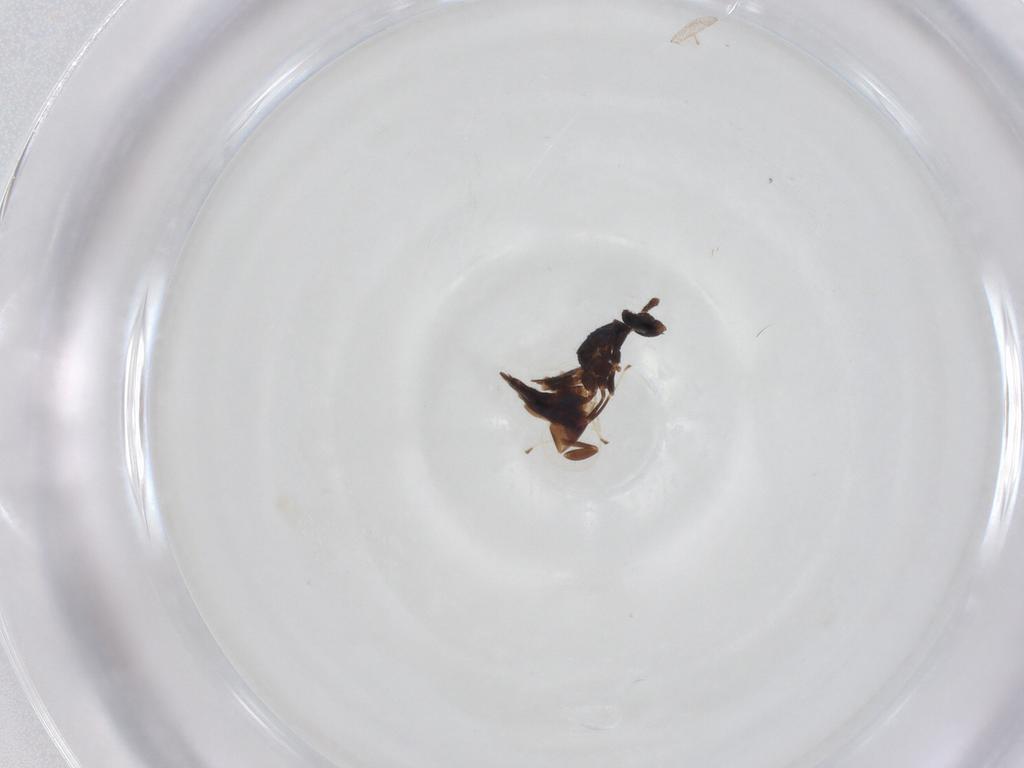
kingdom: Animalia
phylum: Arthropoda
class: Insecta
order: Hymenoptera
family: Trichogrammatidae
